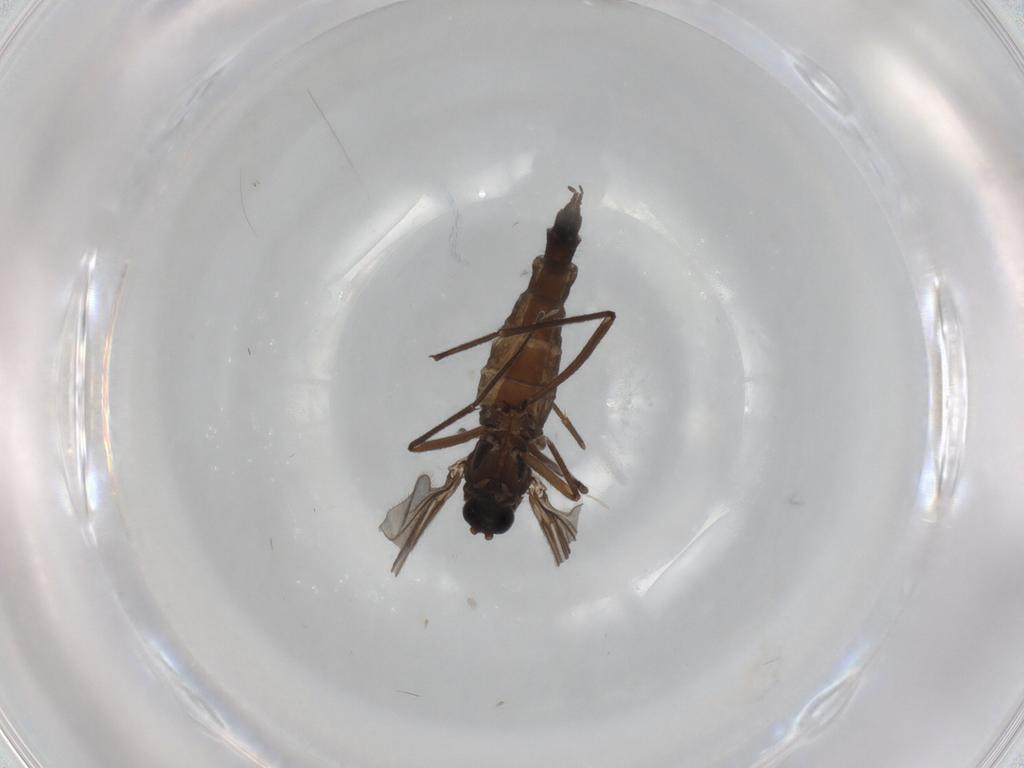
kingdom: Animalia
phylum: Arthropoda
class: Insecta
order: Diptera
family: Sciaridae
